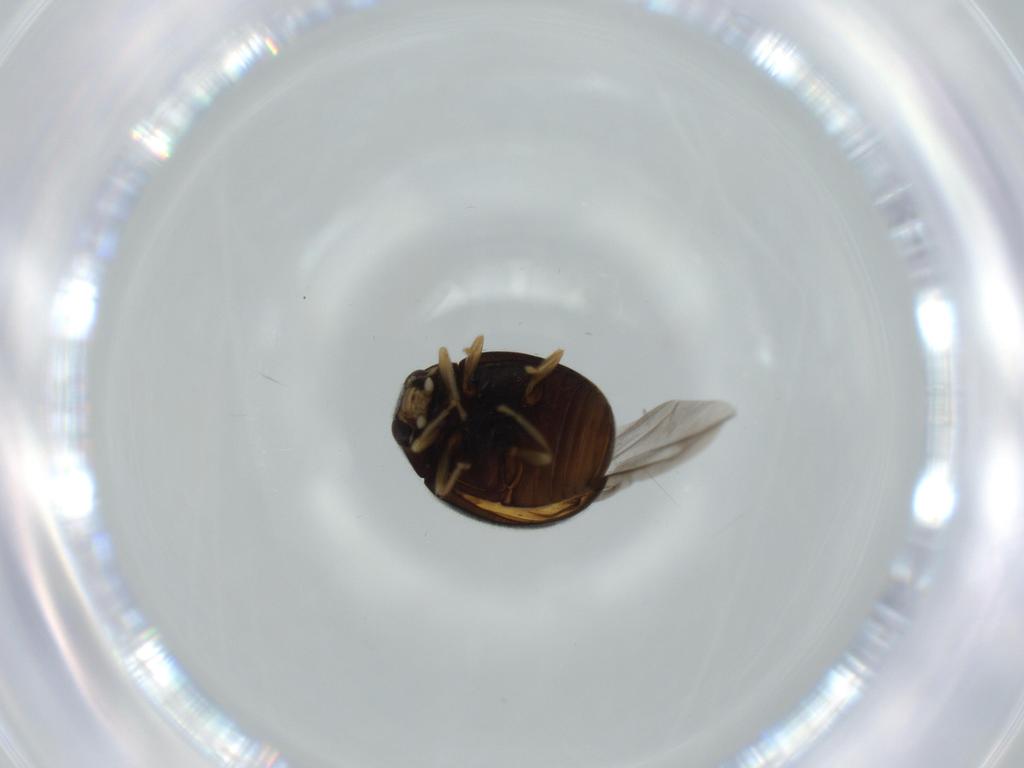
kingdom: Animalia
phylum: Arthropoda
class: Insecta
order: Coleoptera
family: Coccinellidae
